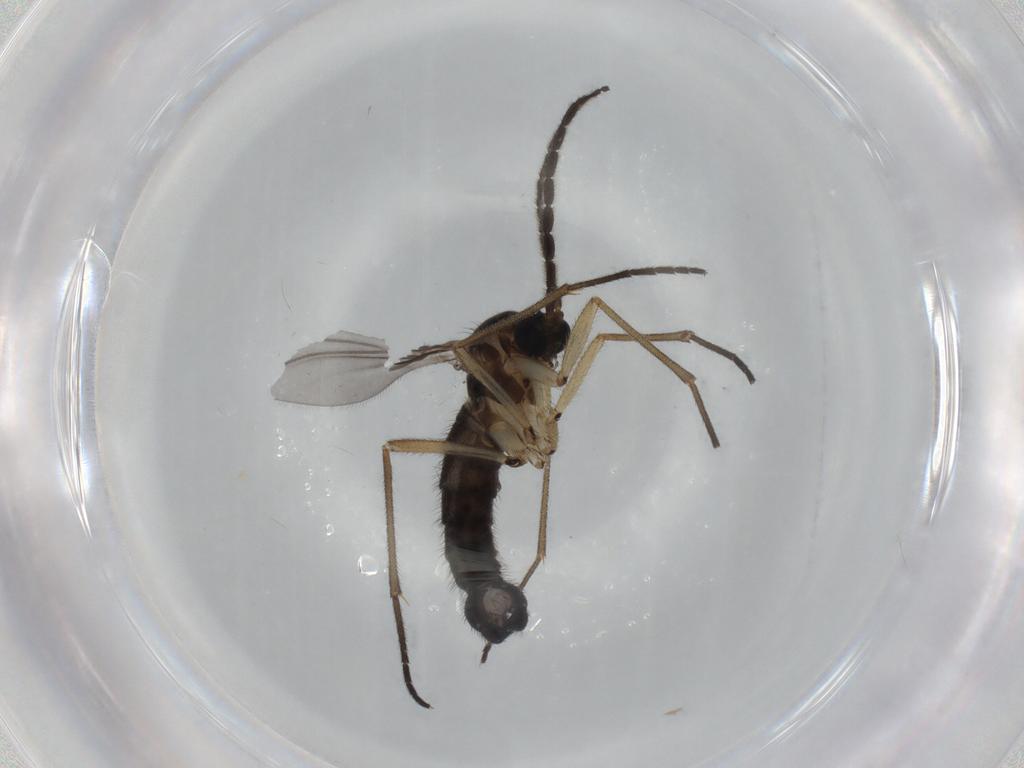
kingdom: Animalia
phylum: Arthropoda
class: Insecta
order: Diptera
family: Sciaridae
